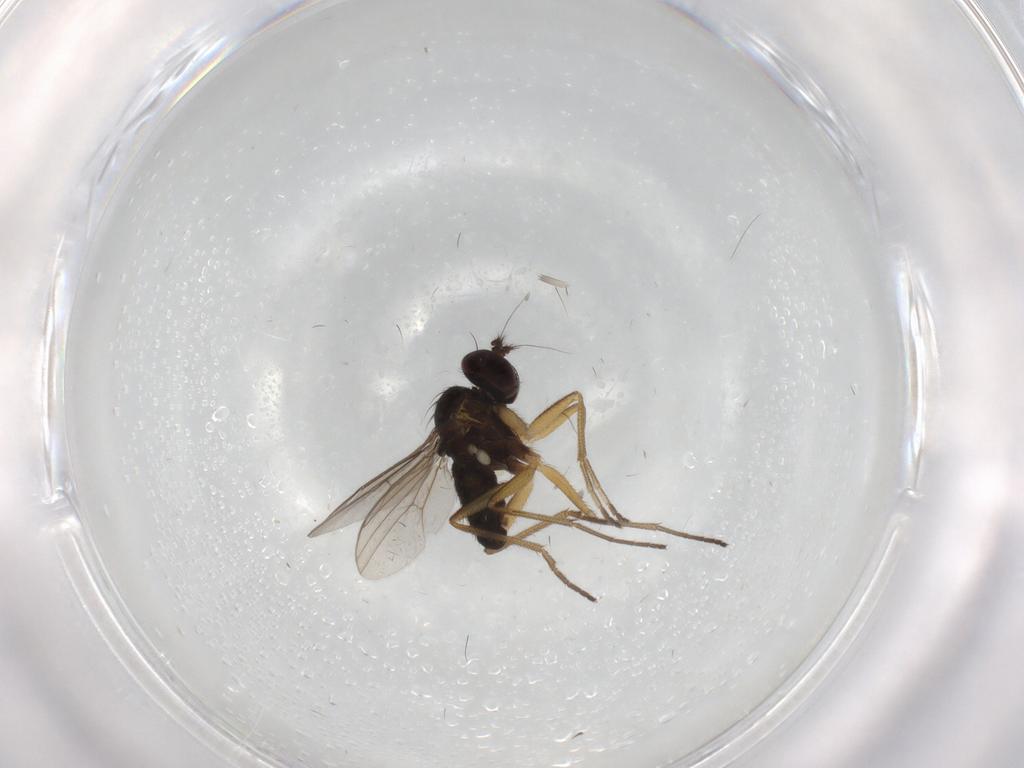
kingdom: Animalia
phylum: Arthropoda
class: Insecta
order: Diptera
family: Phoridae
